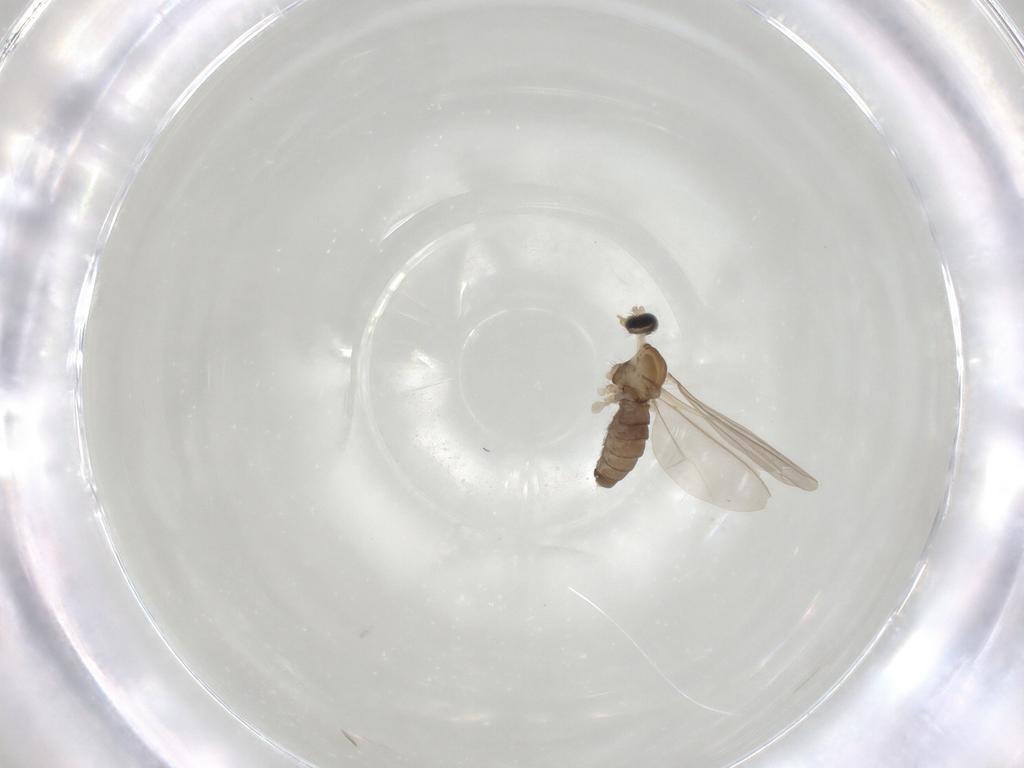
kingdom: Animalia
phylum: Arthropoda
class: Insecta
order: Diptera
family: Cecidomyiidae
